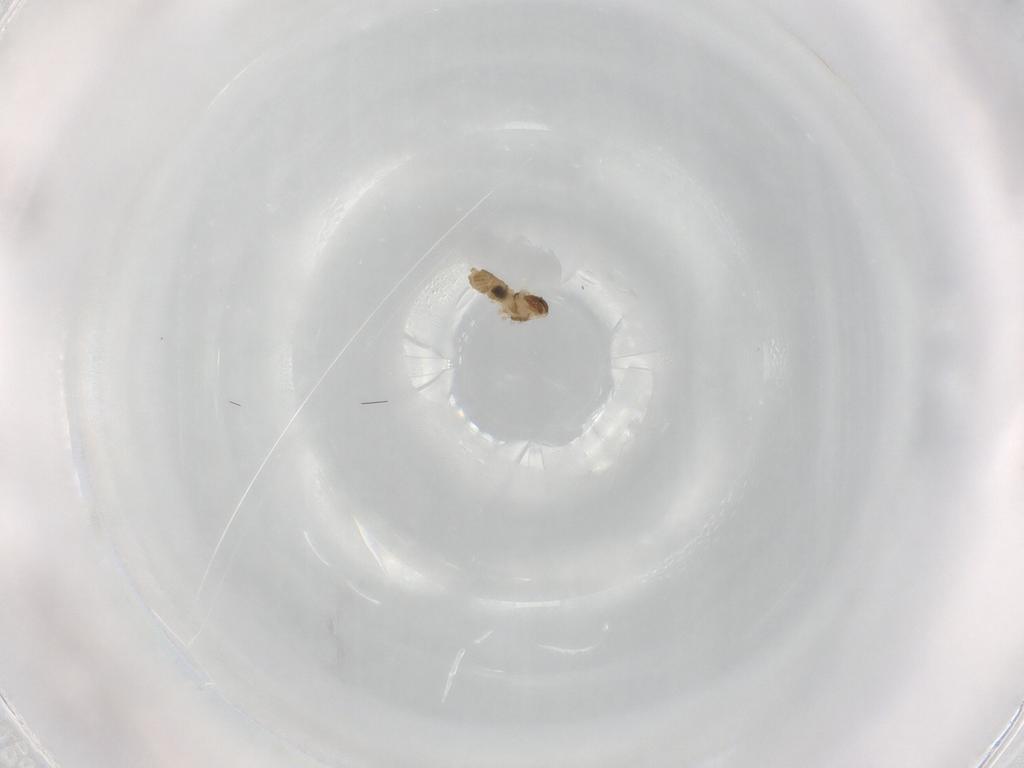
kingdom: Animalia
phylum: Arthropoda
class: Insecta
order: Diptera
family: Cecidomyiidae
